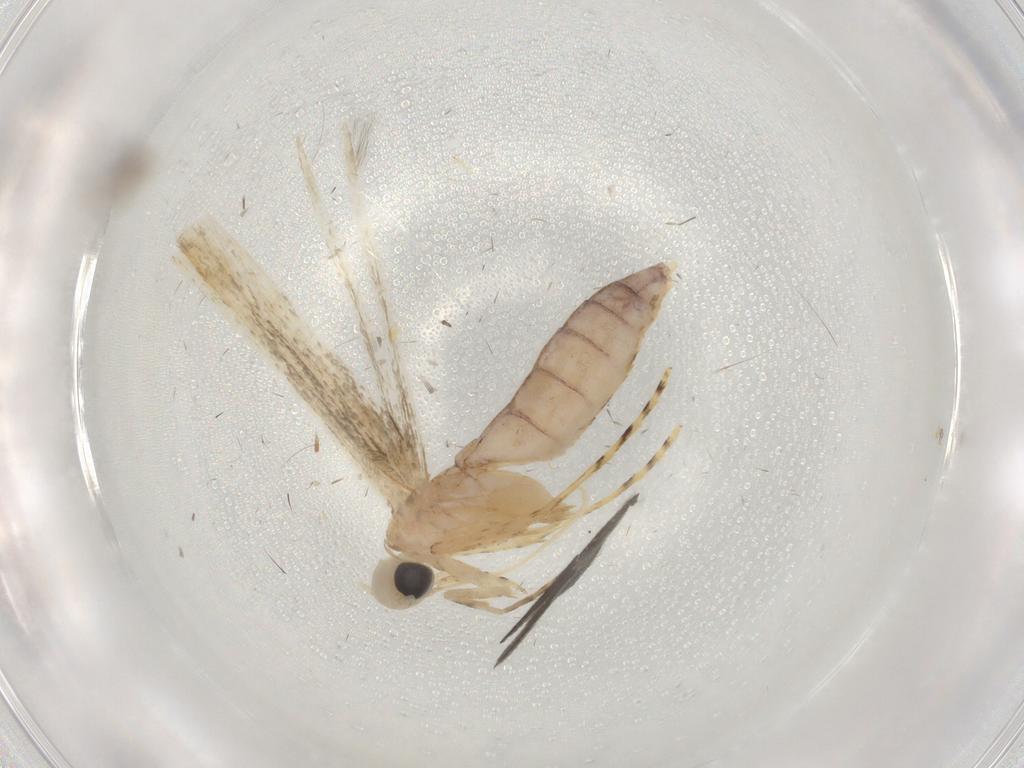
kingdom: Animalia
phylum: Arthropoda
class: Insecta
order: Lepidoptera
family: Batrachedridae
